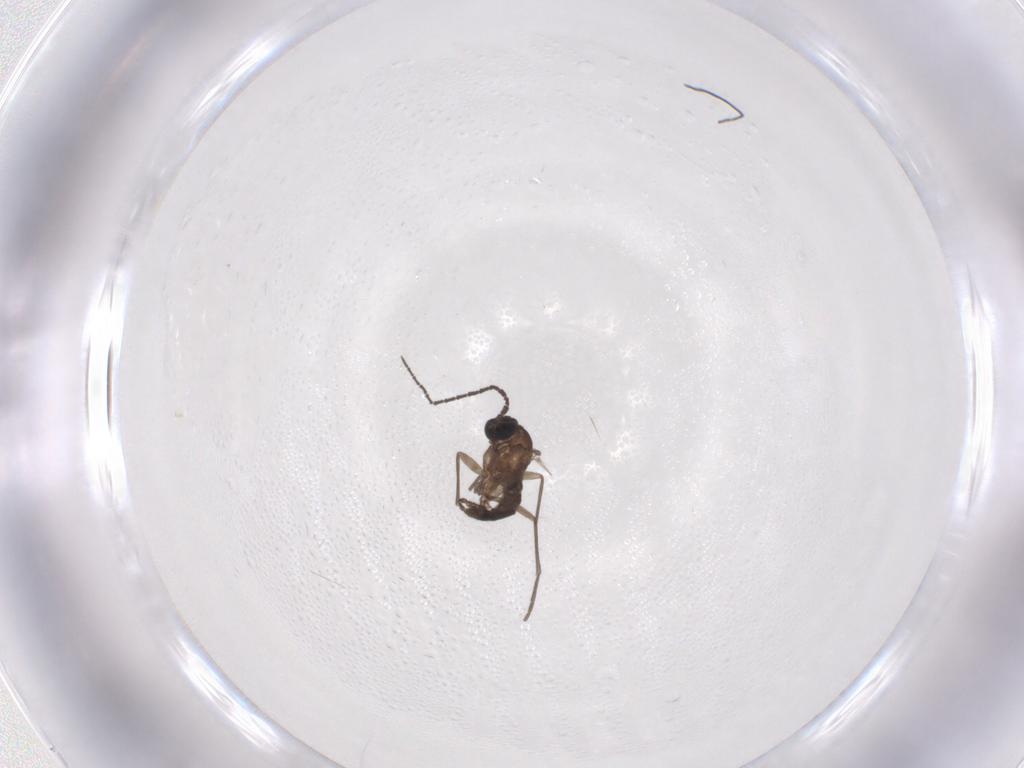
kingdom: Animalia
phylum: Arthropoda
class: Insecta
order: Diptera
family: Sciaridae
